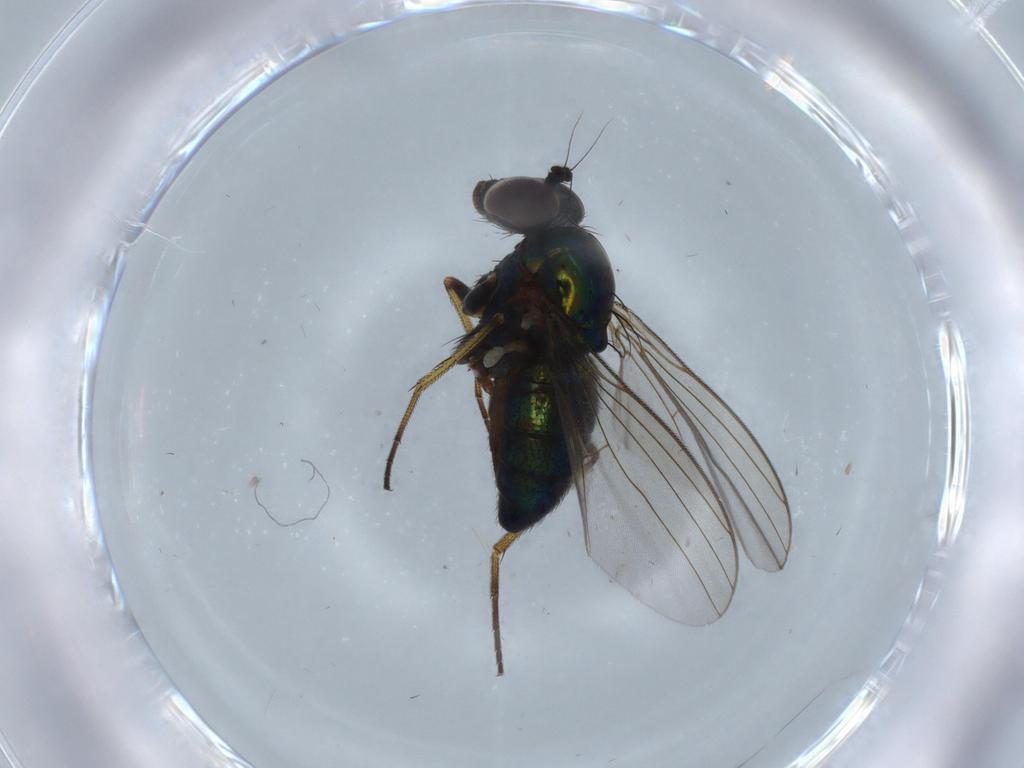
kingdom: Animalia
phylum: Arthropoda
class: Insecta
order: Diptera
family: Dolichopodidae
